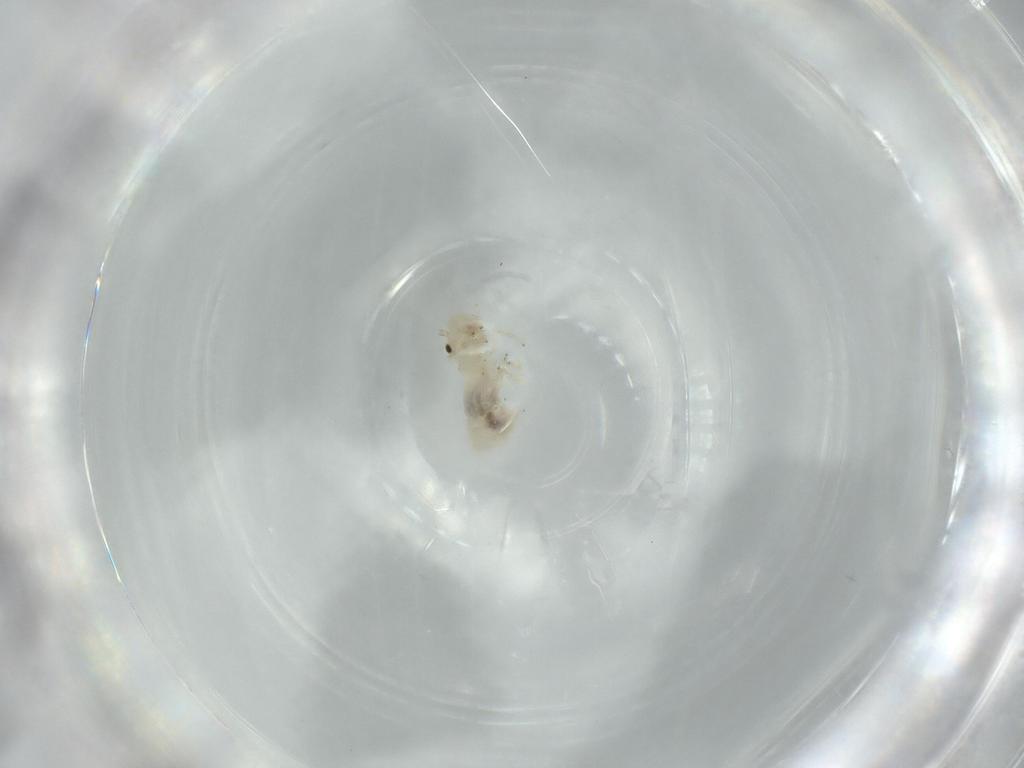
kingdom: Animalia
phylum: Arthropoda
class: Insecta
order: Psocodea
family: Caeciliusidae
